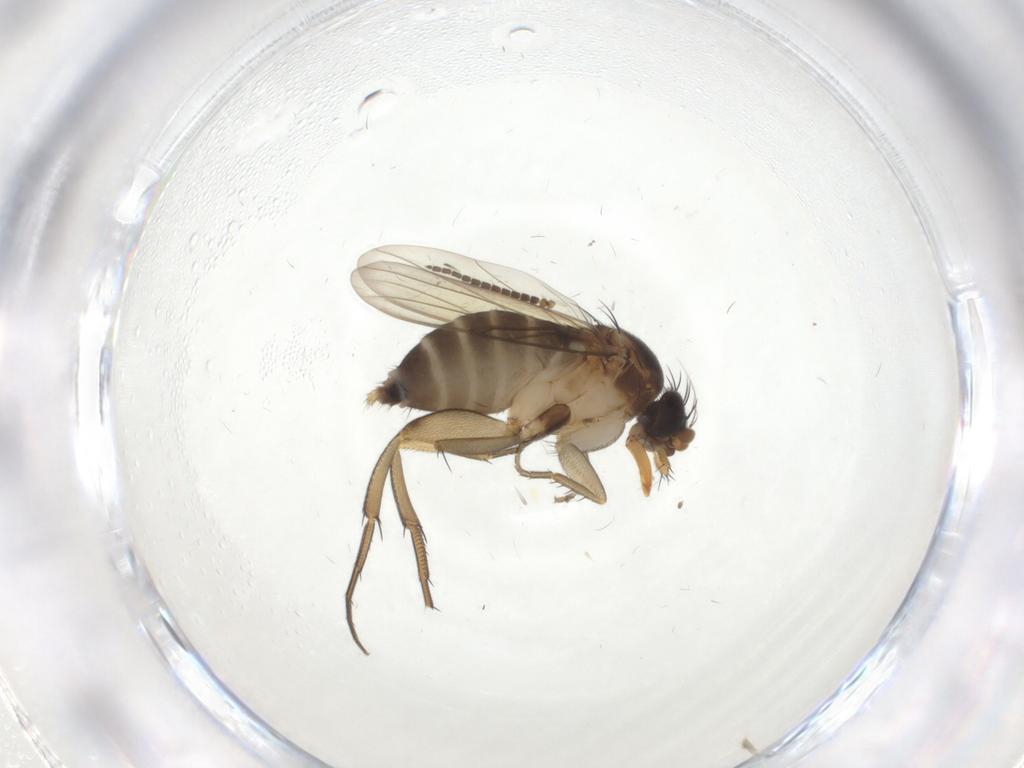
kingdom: Animalia
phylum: Arthropoda
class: Insecta
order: Diptera
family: Sciaridae
